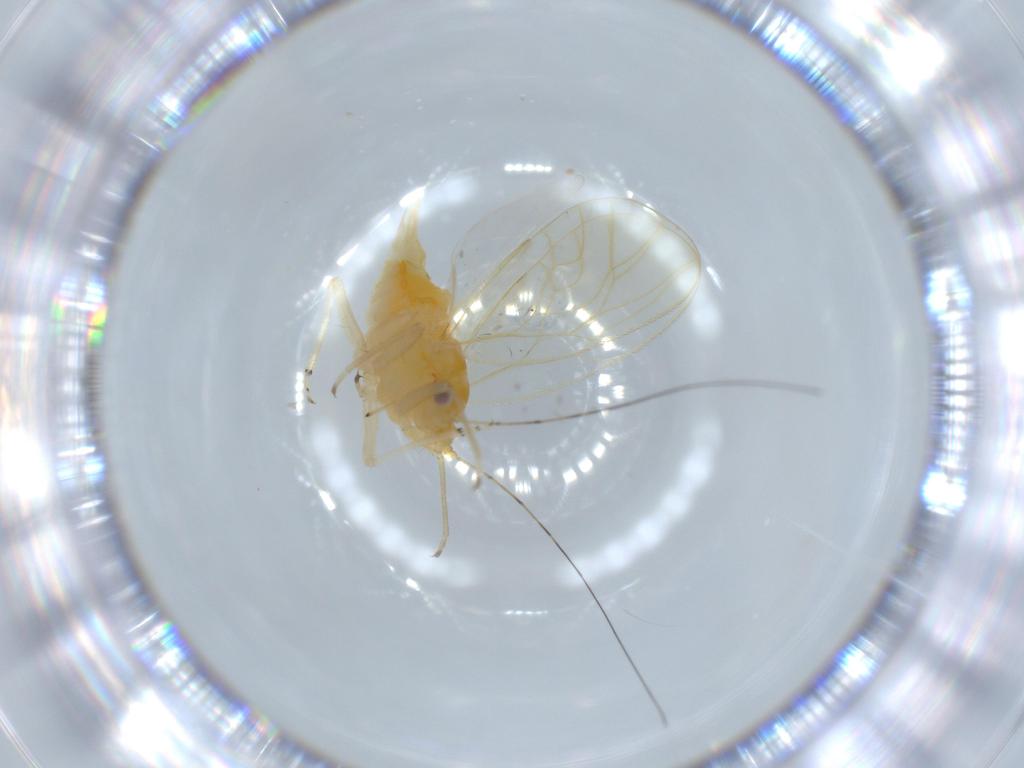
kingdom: Animalia
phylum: Arthropoda
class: Insecta
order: Hemiptera
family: Psyllidae
